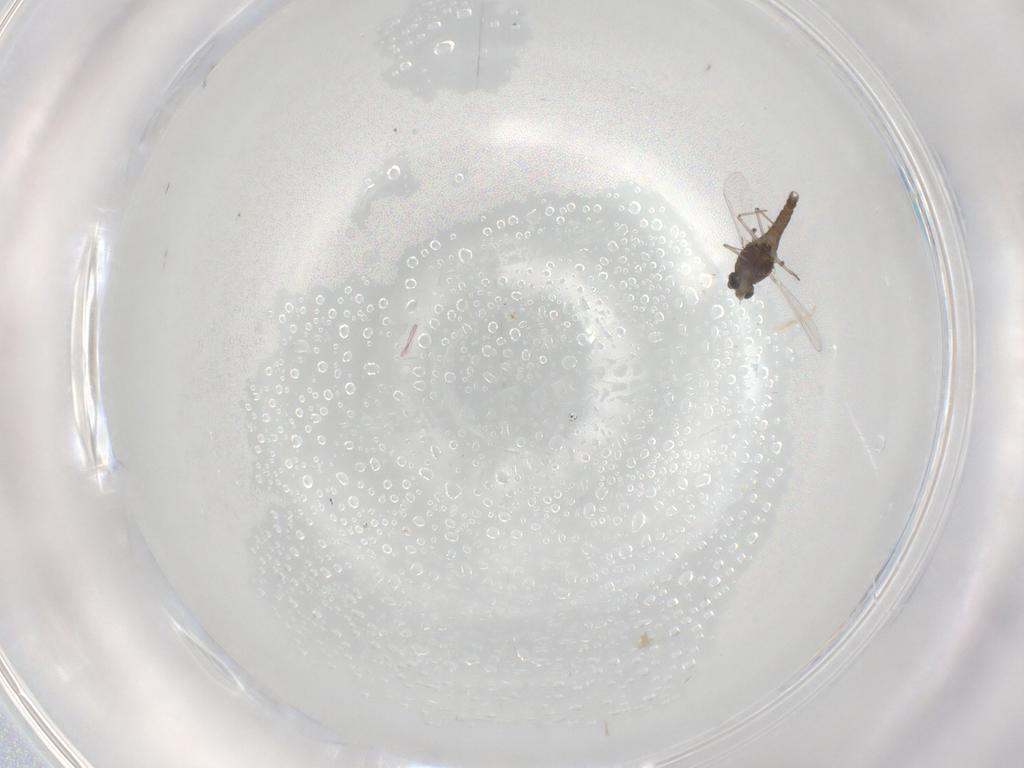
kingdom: Animalia
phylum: Arthropoda
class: Insecta
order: Diptera
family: Chironomidae
